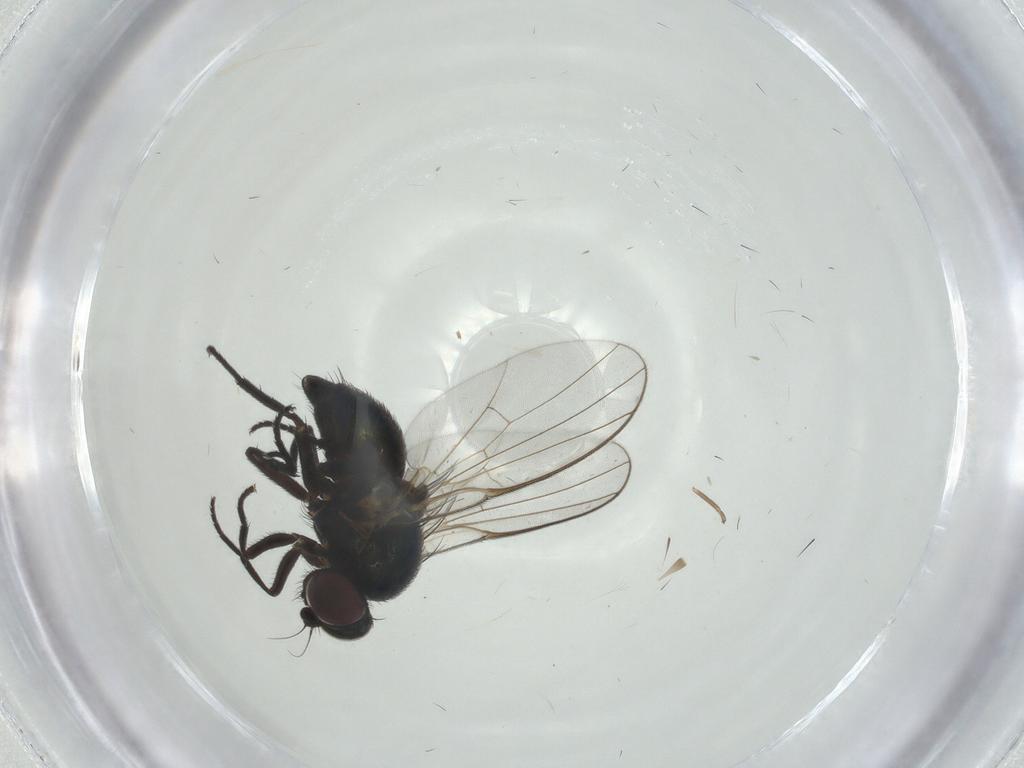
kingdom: Animalia
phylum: Arthropoda
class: Insecta
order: Diptera
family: Agromyzidae
